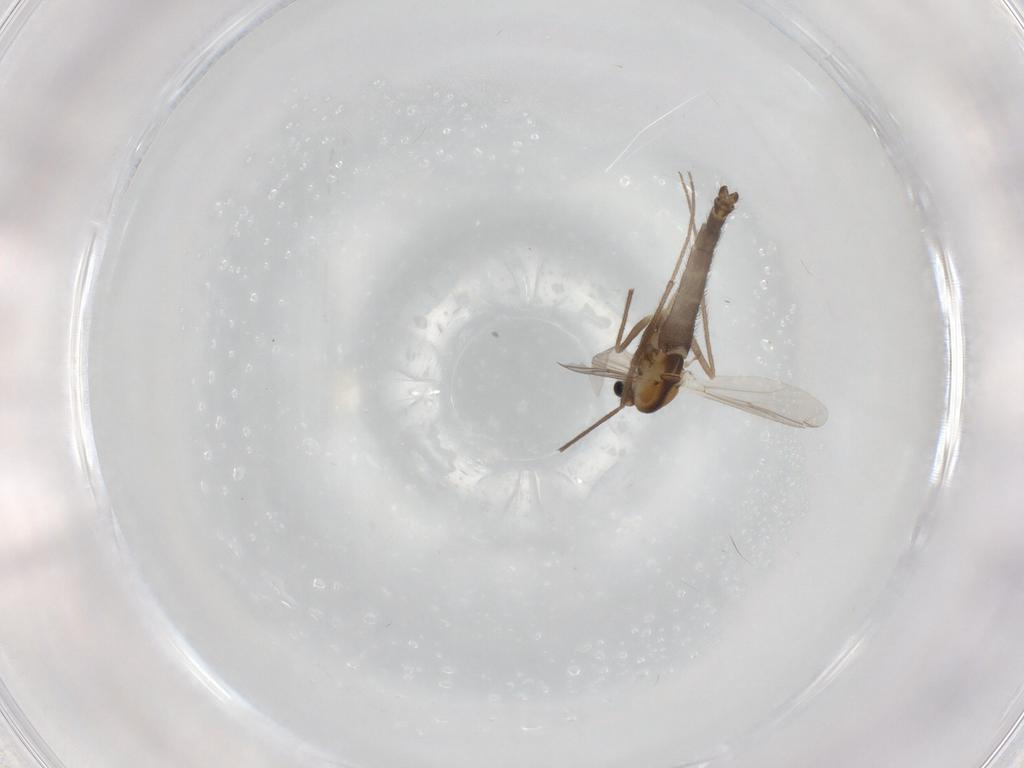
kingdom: Animalia
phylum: Arthropoda
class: Insecta
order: Diptera
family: Chironomidae
